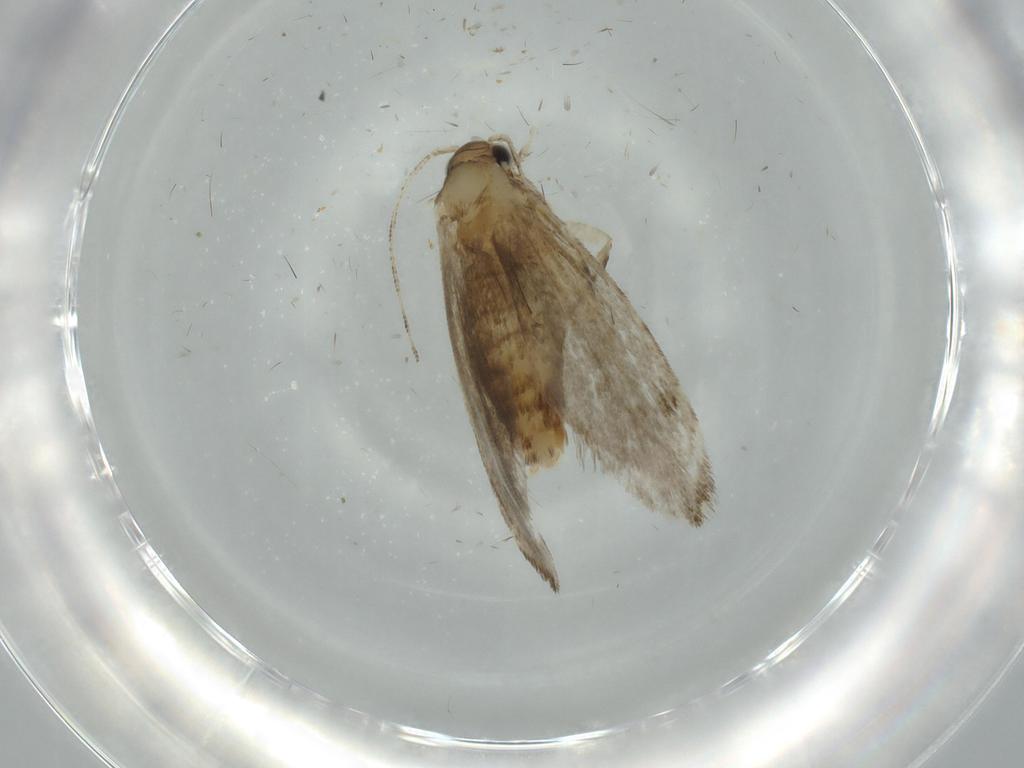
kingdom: Animalia
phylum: Arthropoda
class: Insecta
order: Lepidoptera
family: Tineidae
